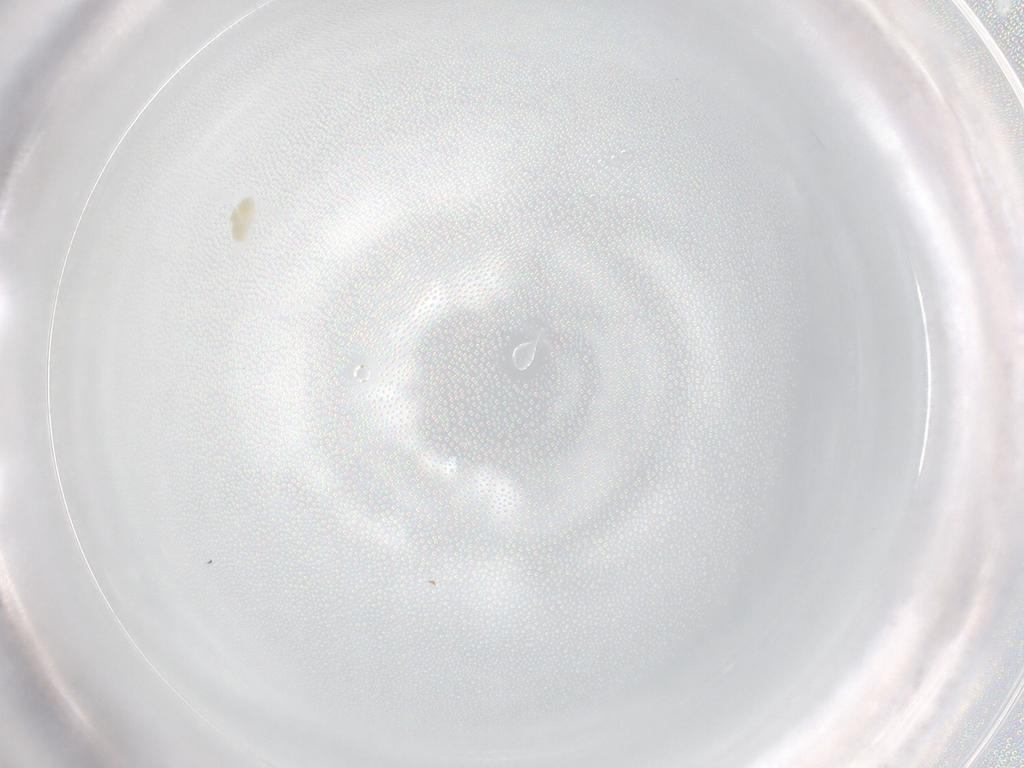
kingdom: Animalia
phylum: Arthropoda
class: Arachnida
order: Trombidiformes
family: Eupodidae
